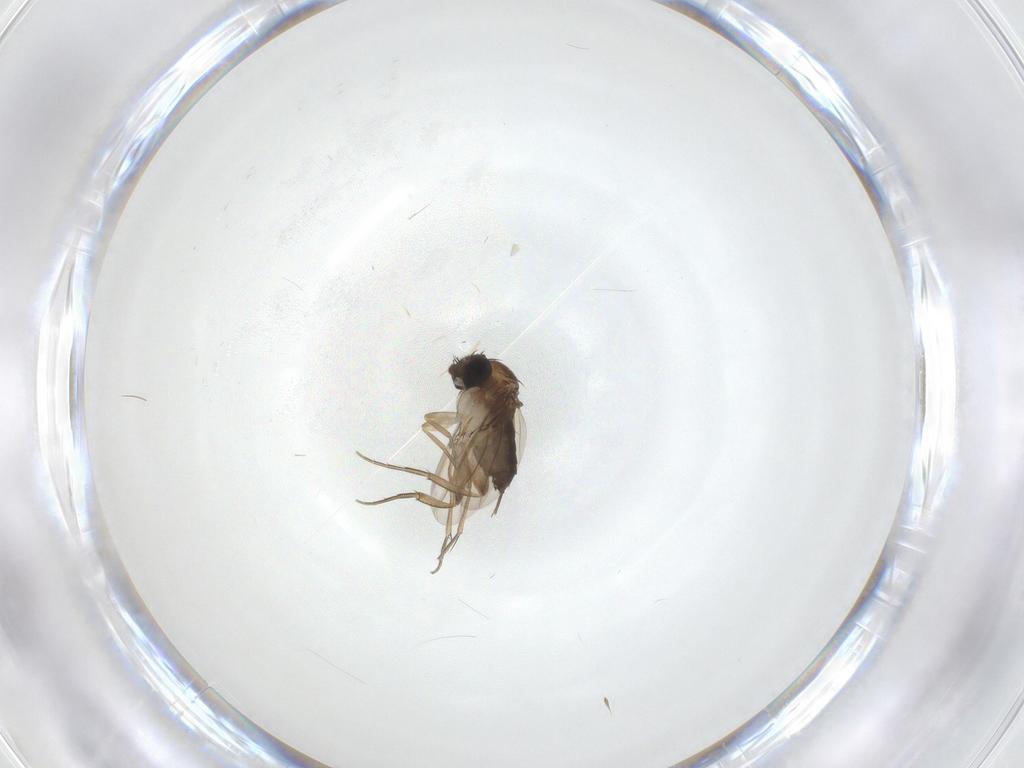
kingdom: Animalia
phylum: Arthropoda
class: Insecta
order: Diptera
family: Phoridae
